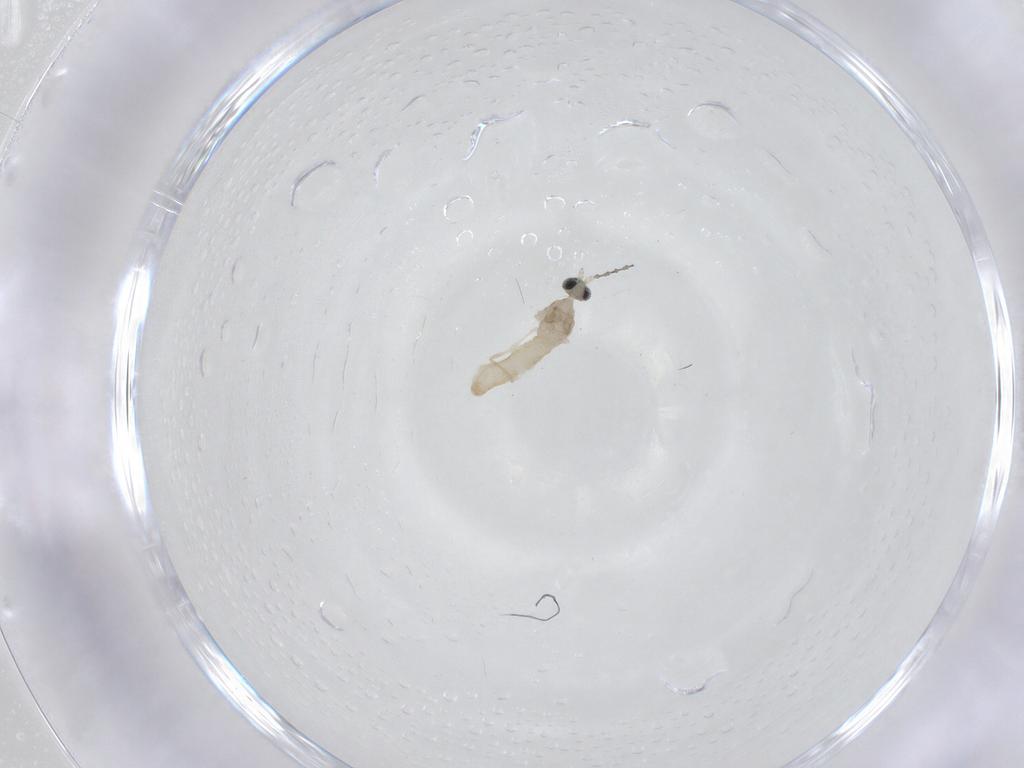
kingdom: Animalia
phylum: Arthropoda
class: Insecta
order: Diptera
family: Cecidomyiidae
